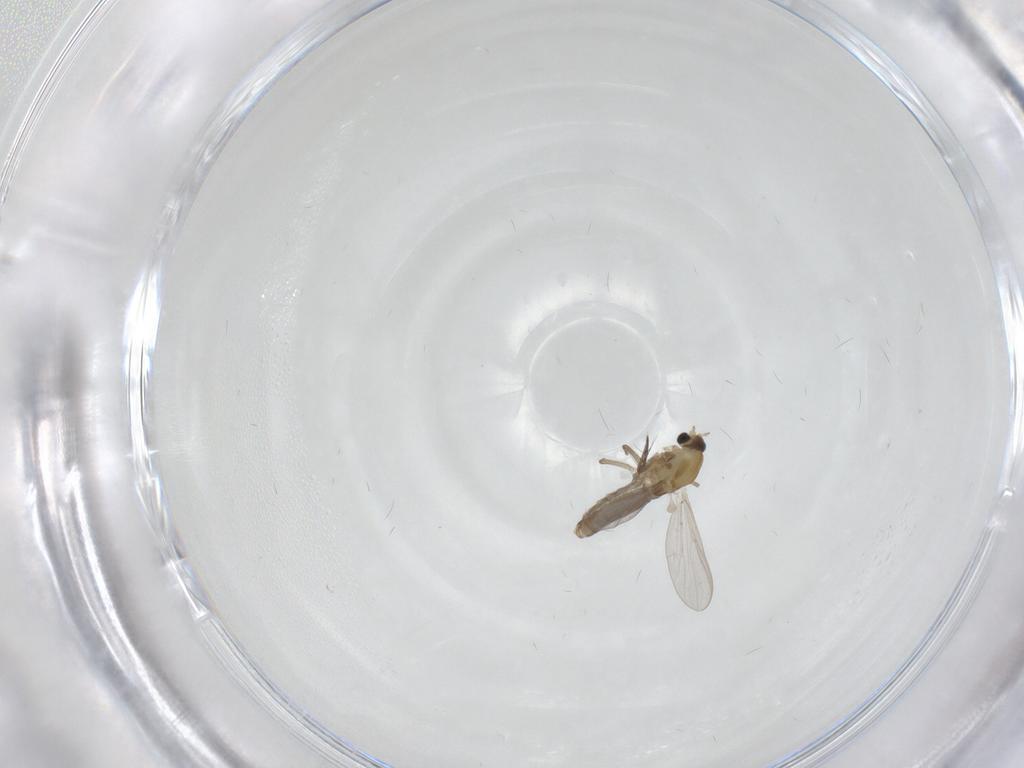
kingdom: Animalia
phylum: Arthropoda
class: Insecta
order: Diptera
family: Chironomidae
